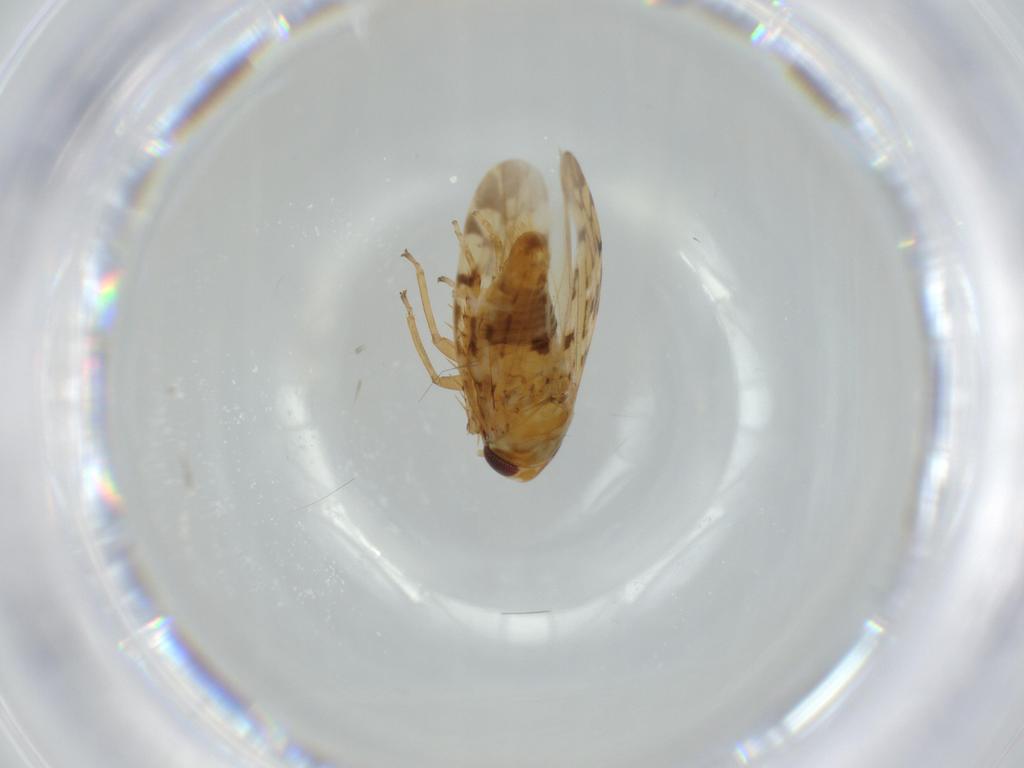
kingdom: Animalia
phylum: Arthropoda
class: Insecta
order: Hemiptera
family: Cicadellidae
